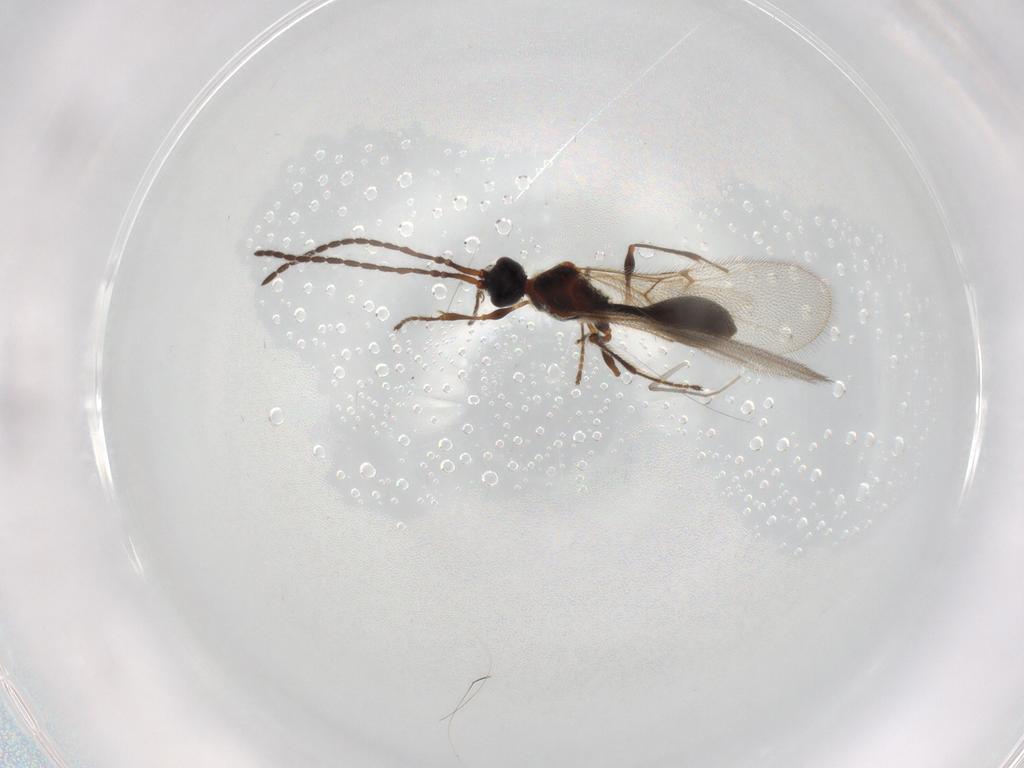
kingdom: Animalia
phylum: Arthropoda
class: Insecta
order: Hymenoptera
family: Diapriidae
